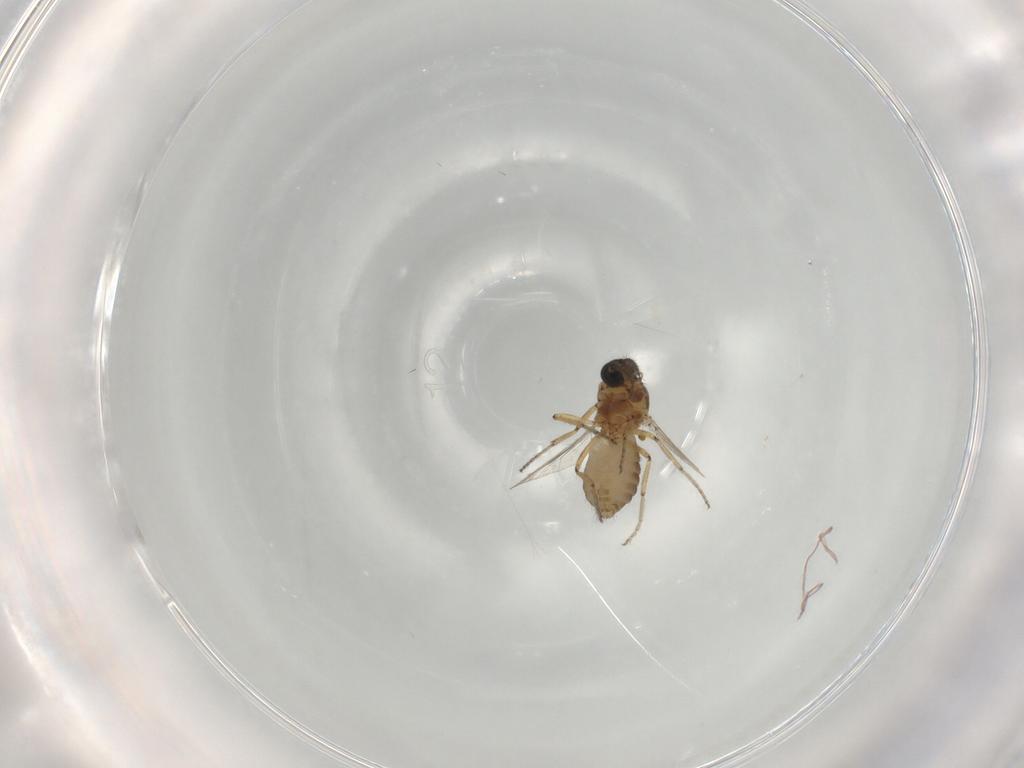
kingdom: Animalia
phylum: Arthropoda
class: Insecta
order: Diptera
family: Ceratopogonidae
